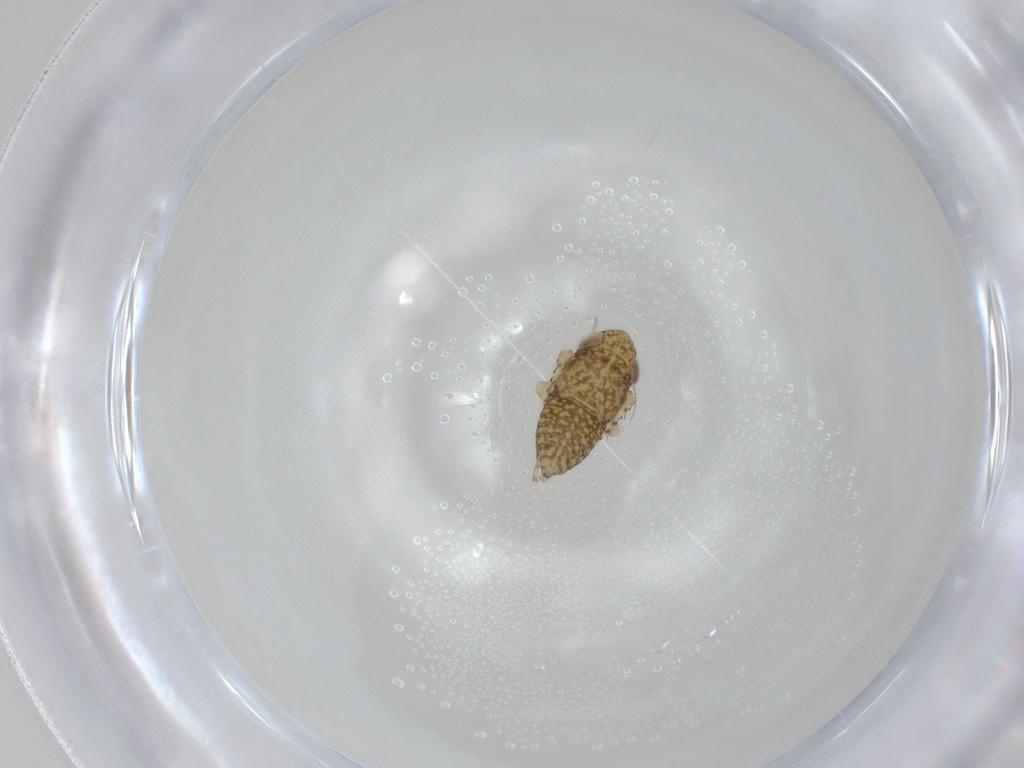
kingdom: Animalia
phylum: Arthropoda
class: Insecta
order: Hemiptera
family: Cicadellidae
